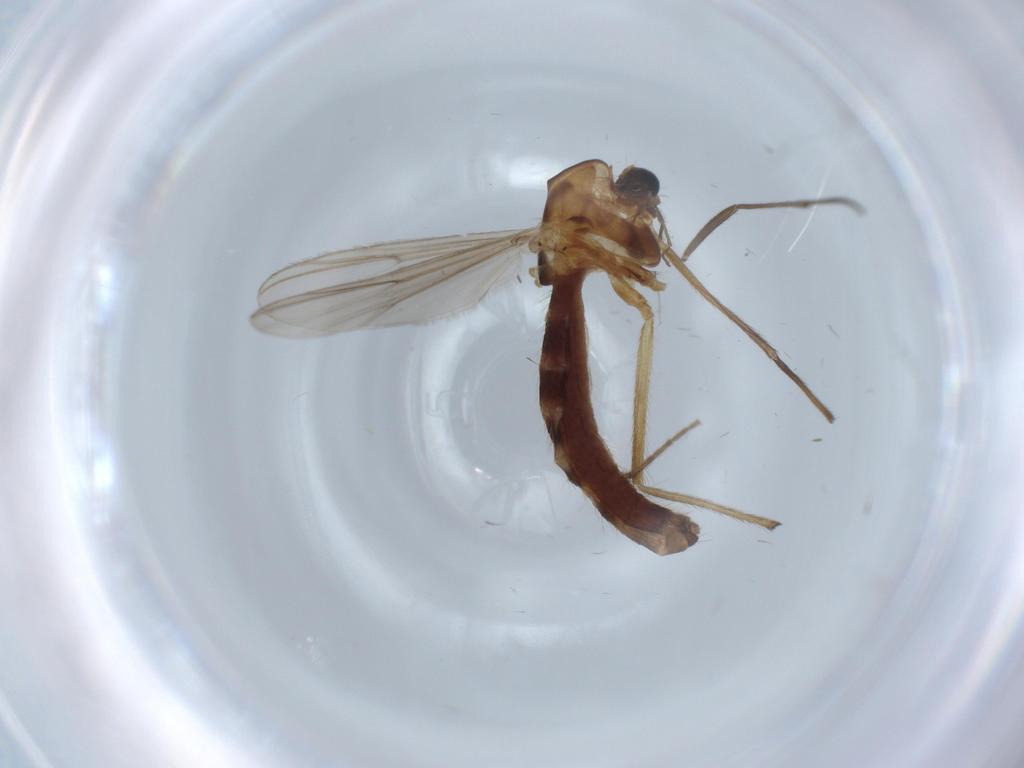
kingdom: Animalia
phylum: Arthropoda
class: Insecta
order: Diptera
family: Chironomidae
